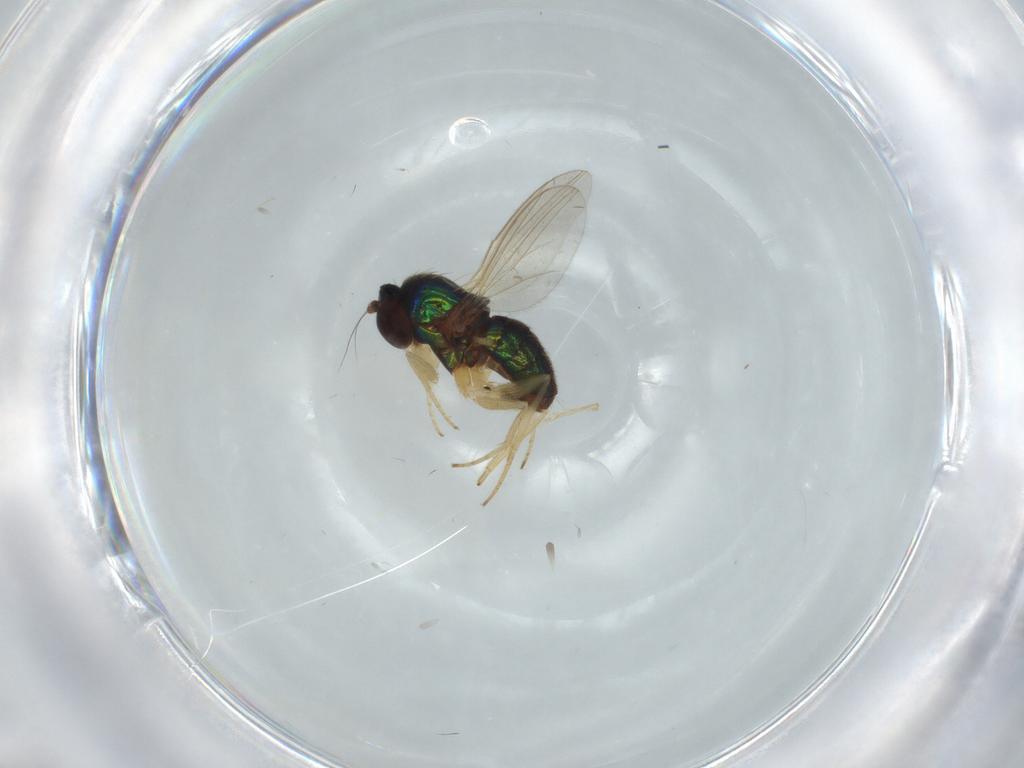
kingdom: Animalia
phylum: Arthropoda
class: Insecta
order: Diptera
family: Dolichopodidae
